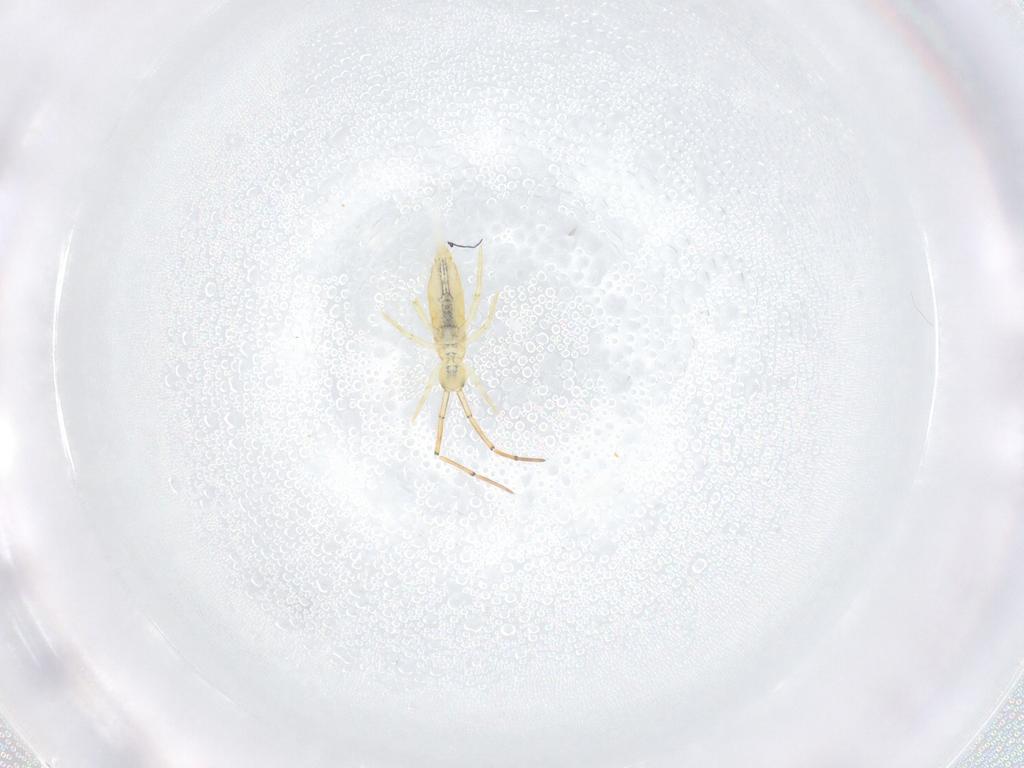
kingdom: Animalia
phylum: Arthropoda
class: Collembola
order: Entomobryomorpha
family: Paronellidae
